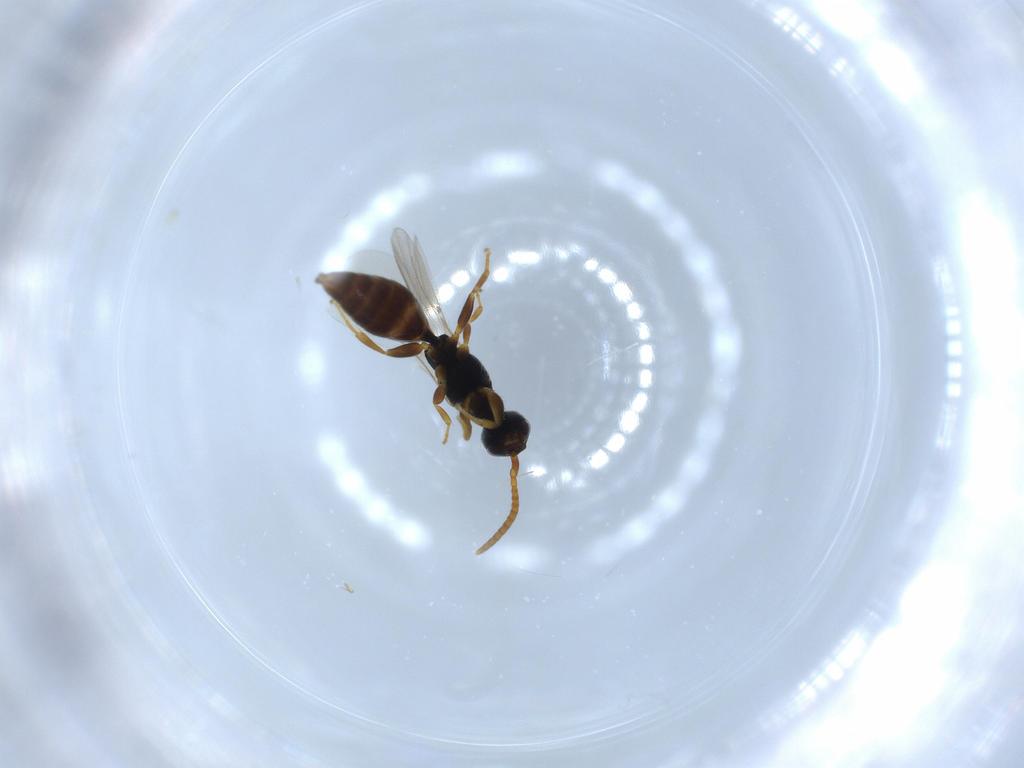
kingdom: Animalia
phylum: Arthropoda
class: Insecta
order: Hymenoptera
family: Bethylidae
